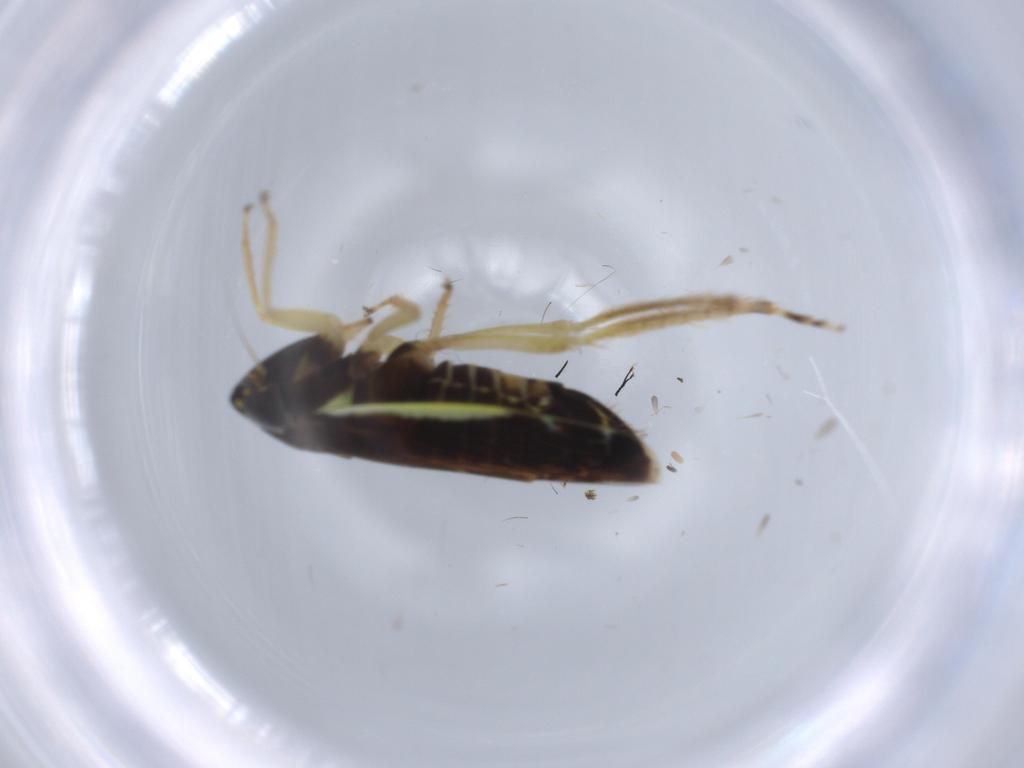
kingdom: Animalia
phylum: Arthropoda
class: Insecta
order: Hemiptera
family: Cicadellidae
